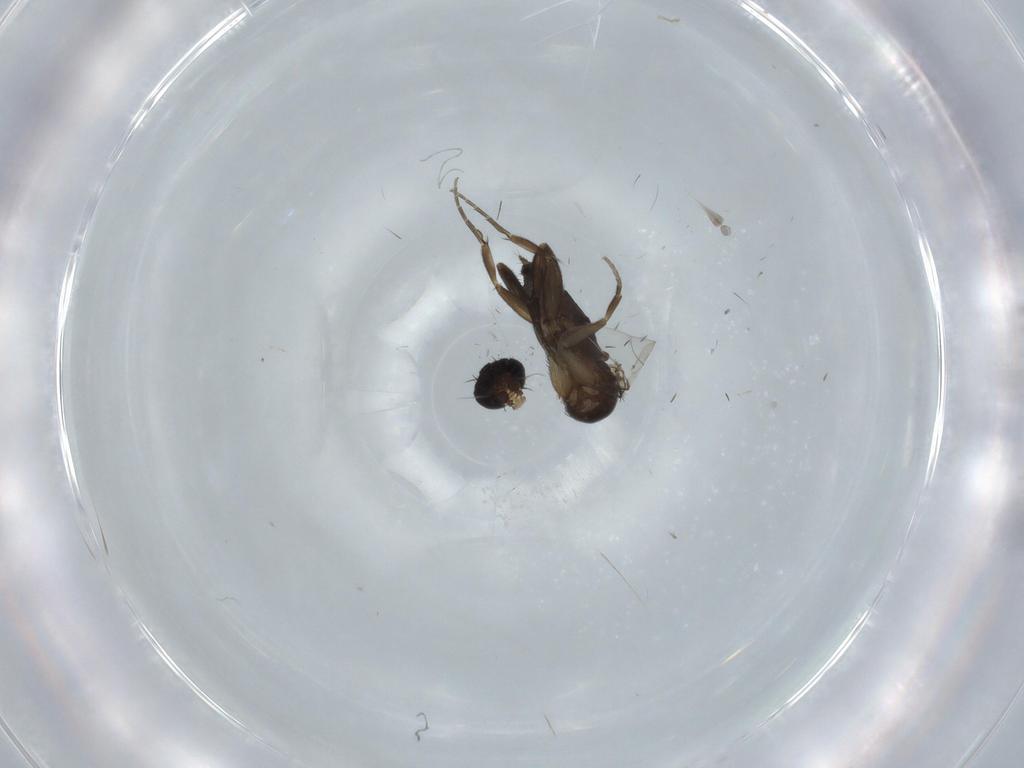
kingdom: Animalia
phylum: Arthropoda
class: Insecta
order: Diptera
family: Phoridae
